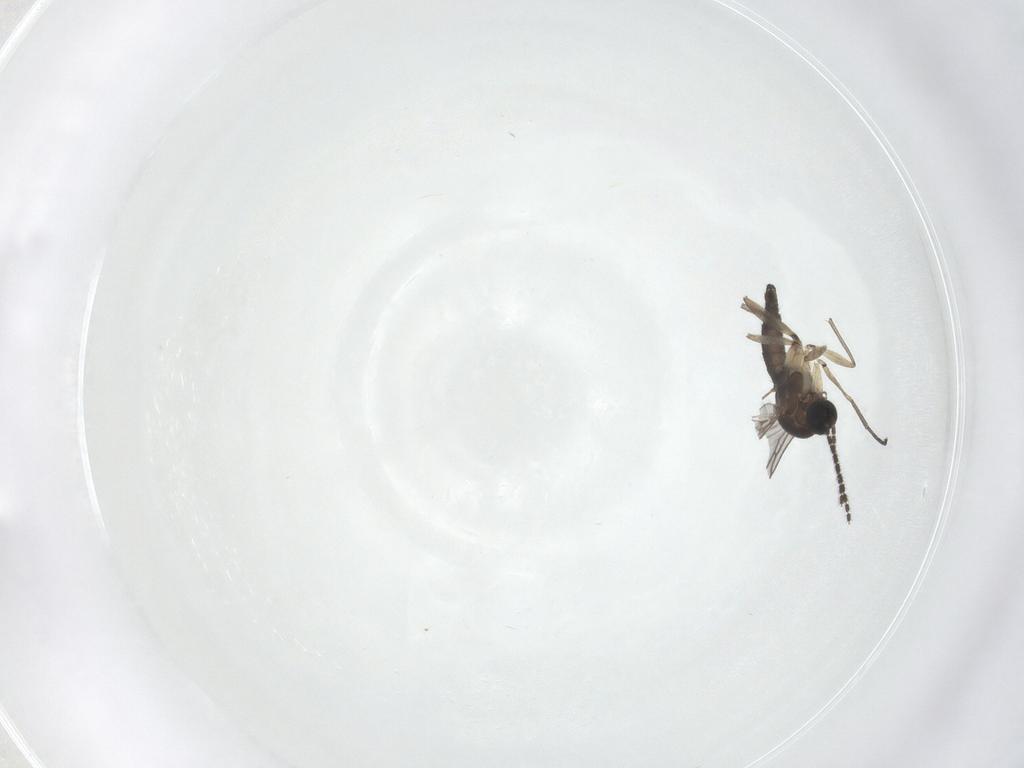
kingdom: Animalia
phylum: Arthropoda
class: Insecta
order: Diptera
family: Sciaridae
